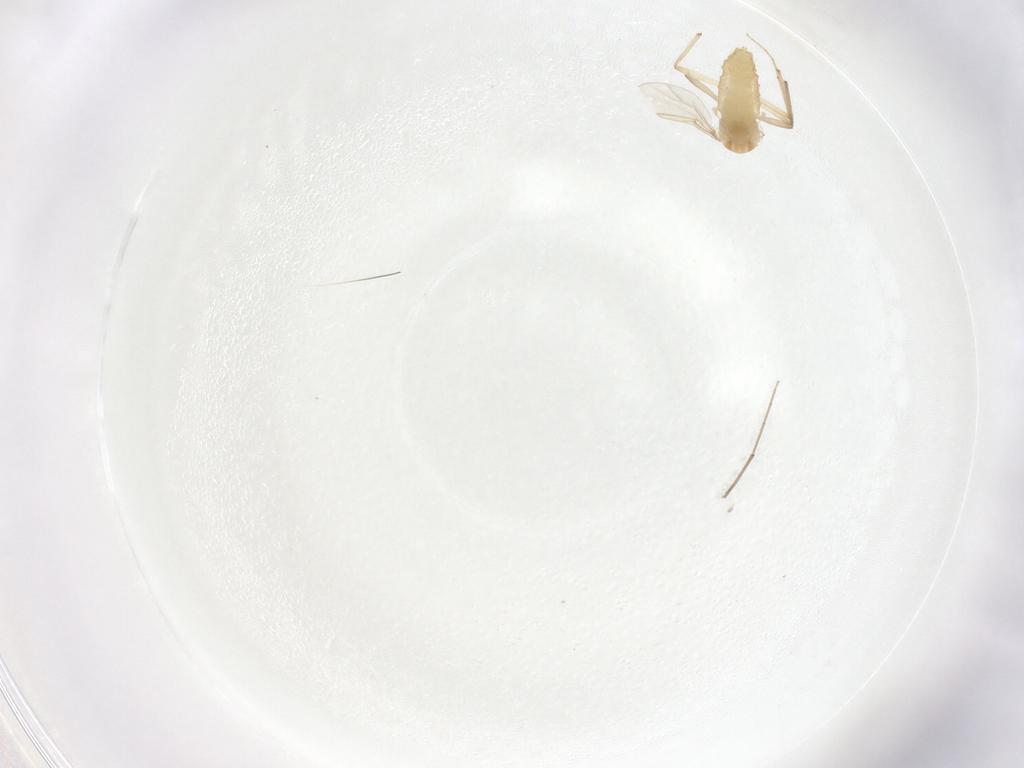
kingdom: Animalia
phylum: Arthropoda
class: Insecta
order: Diptera
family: Chironomidae
